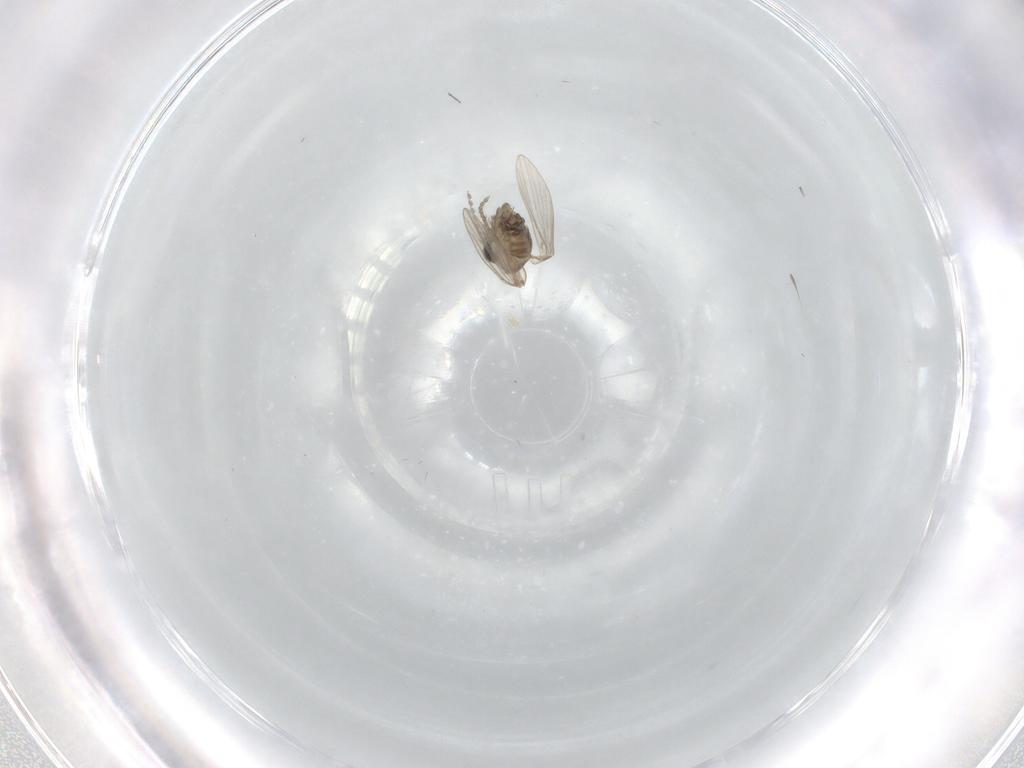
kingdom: Animalia
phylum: Arthropoda
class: Insecta
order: Diptera
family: Drosophilidae
